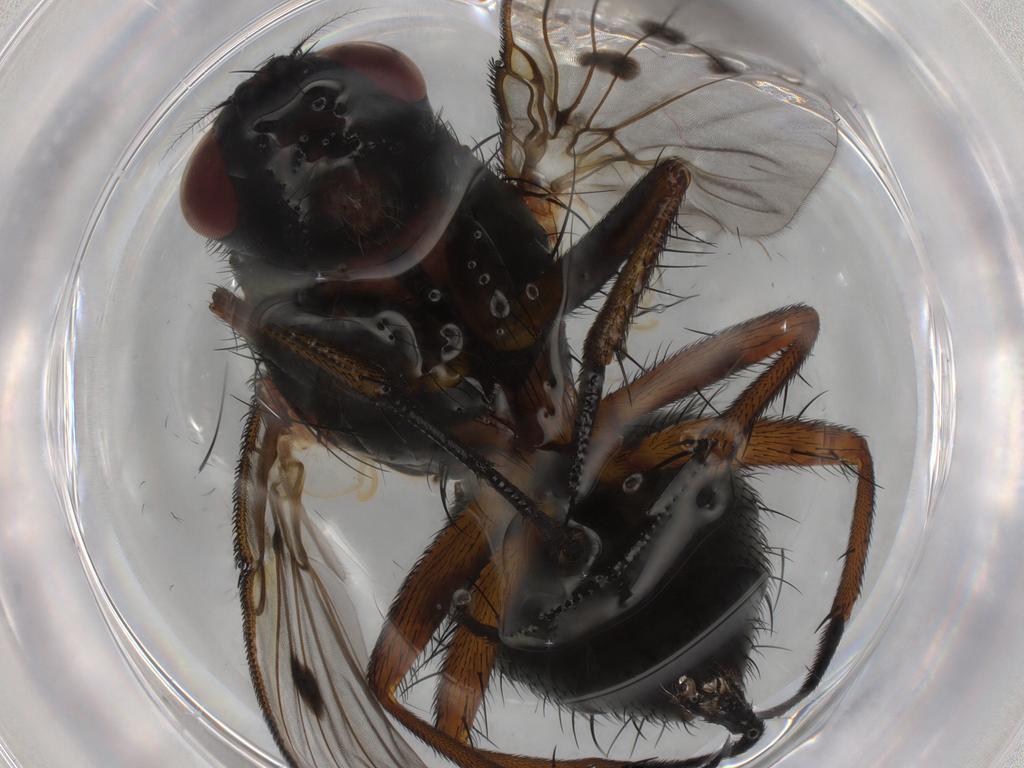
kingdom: Animalia
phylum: Arthropoda
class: Insecta
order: Diptera
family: Muscidae
